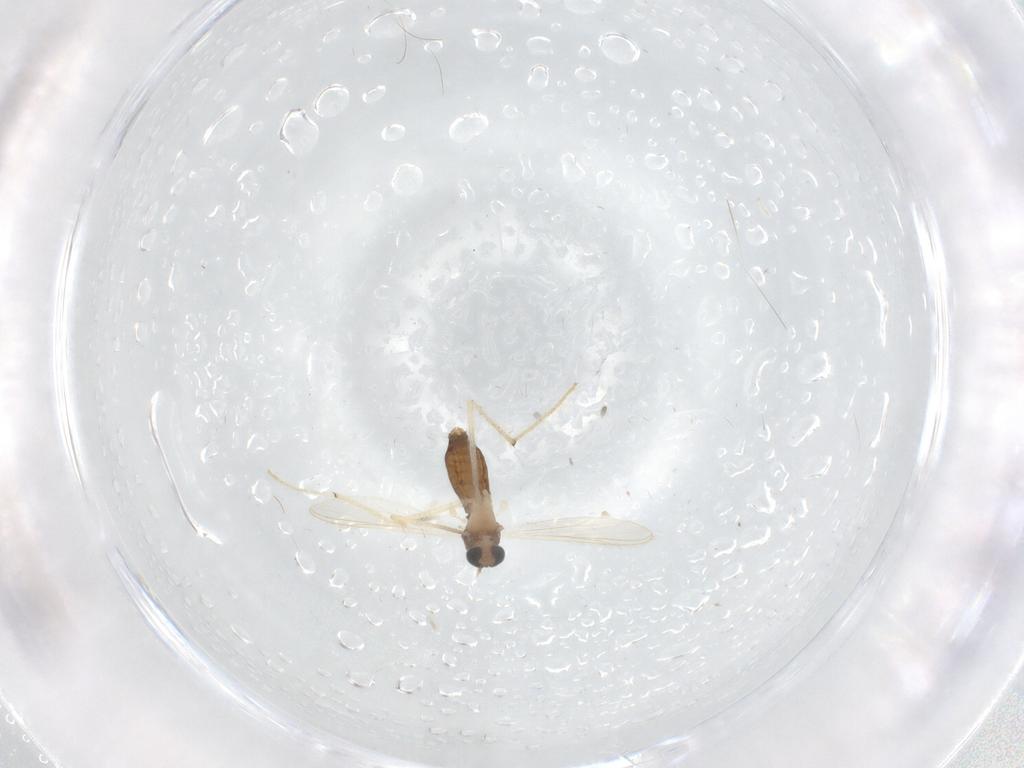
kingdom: Animalia
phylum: Arthropoda
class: Insecta
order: Diptera
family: Chironomidae
